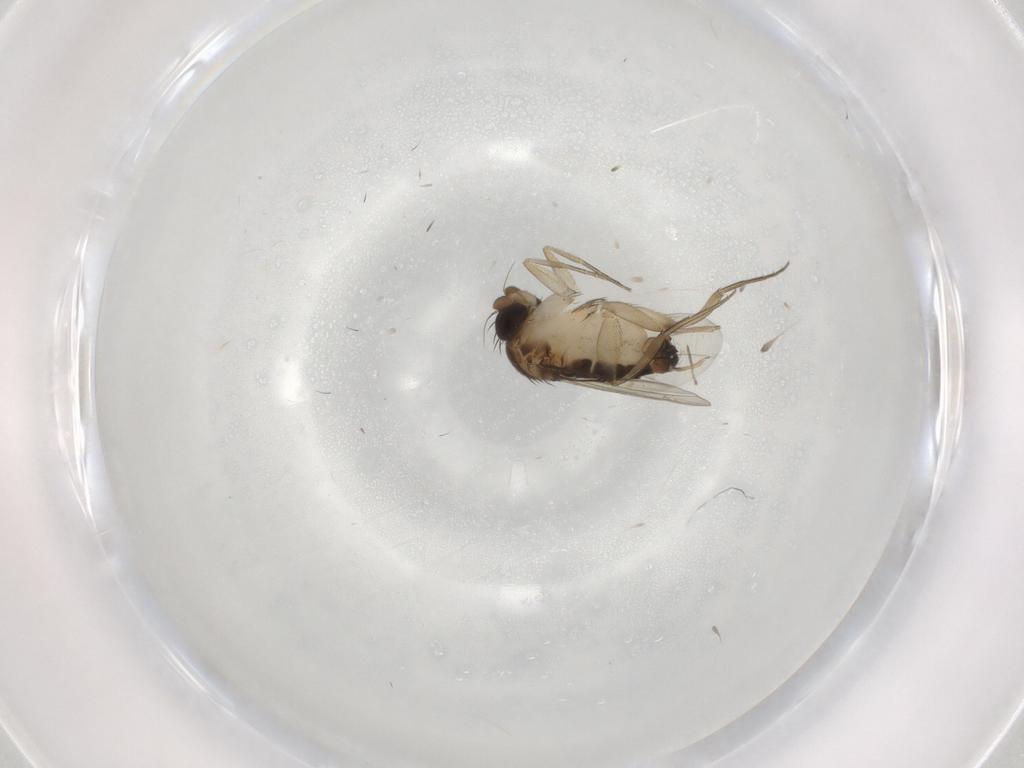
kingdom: Animalia
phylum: Arthropoda
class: Insecta
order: Diptera
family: Phoridae
